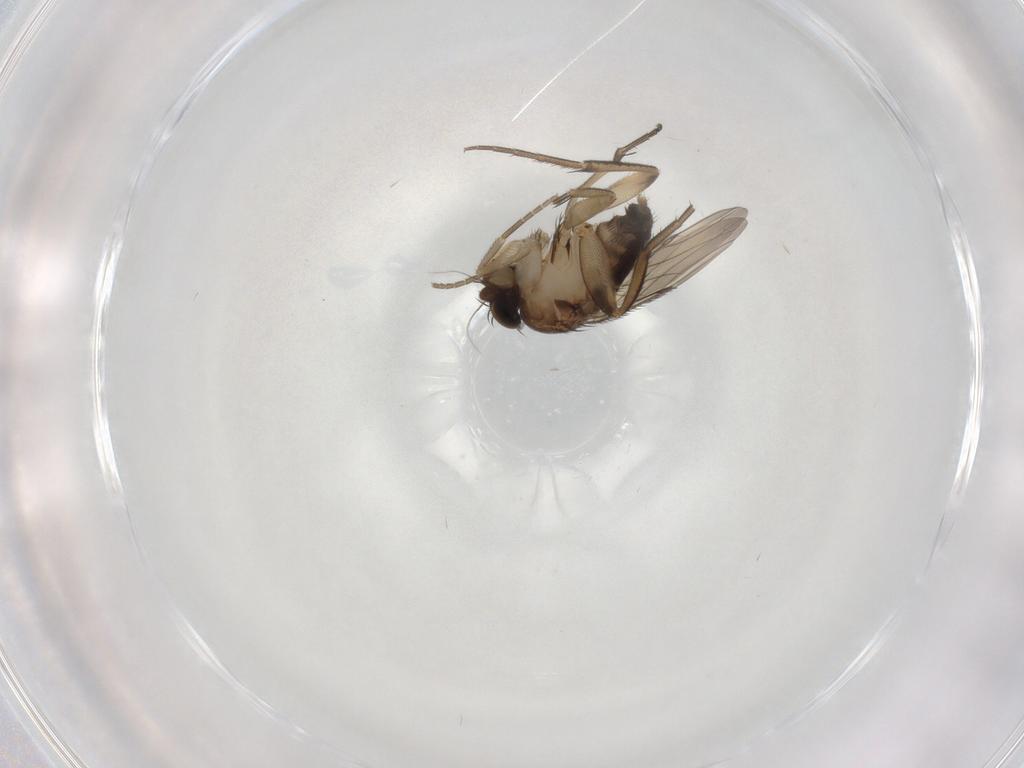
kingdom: Animalia
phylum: Arthropoda
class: Insecta
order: Diptera
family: Phoridae
